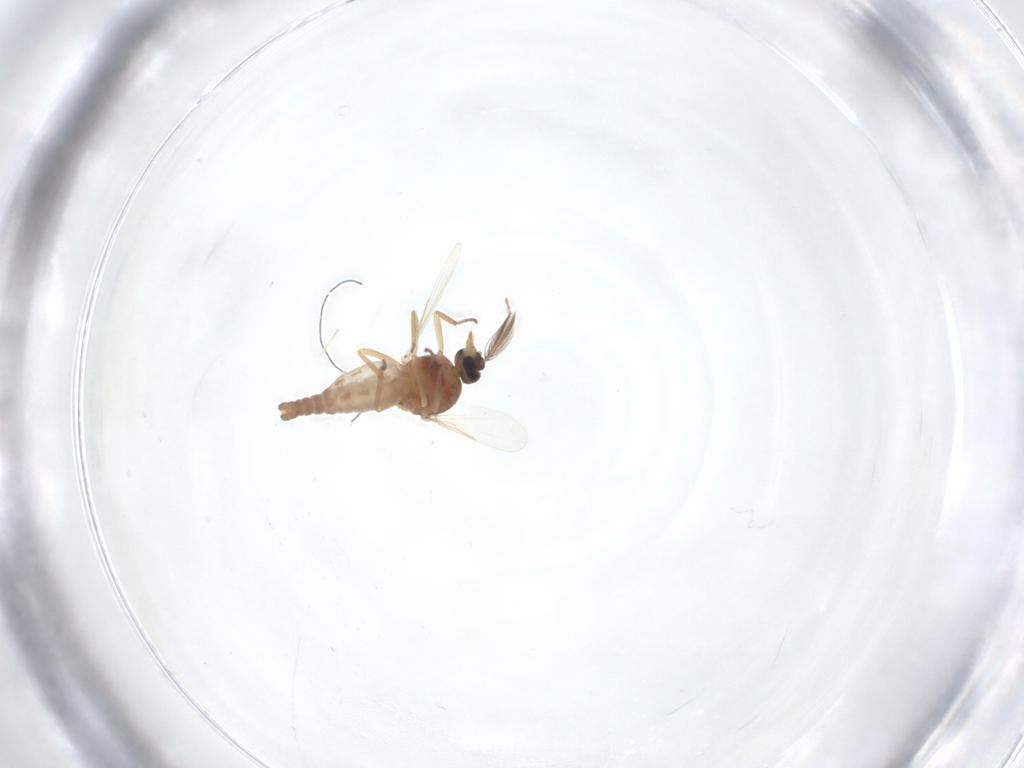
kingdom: Animalia
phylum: Arthropoda
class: Insecta
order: Diptera
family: Ceratopogonidae
